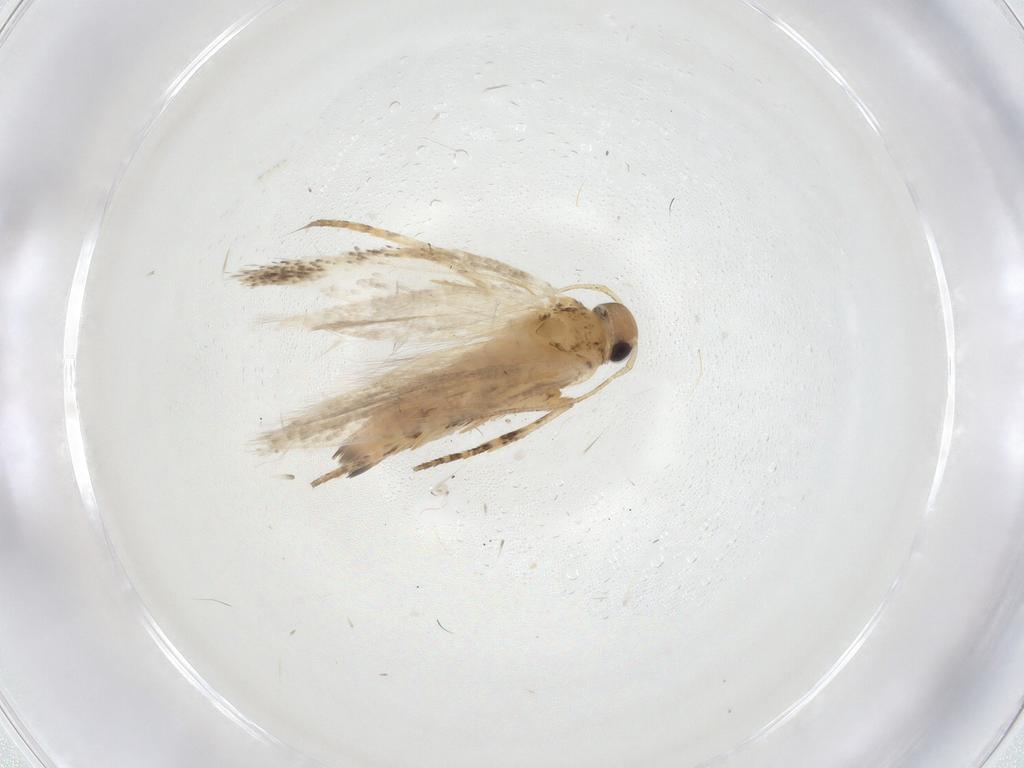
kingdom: Animalia
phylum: Arthropoda
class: Insecta
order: Lepidoptera
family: Gelechiidae
